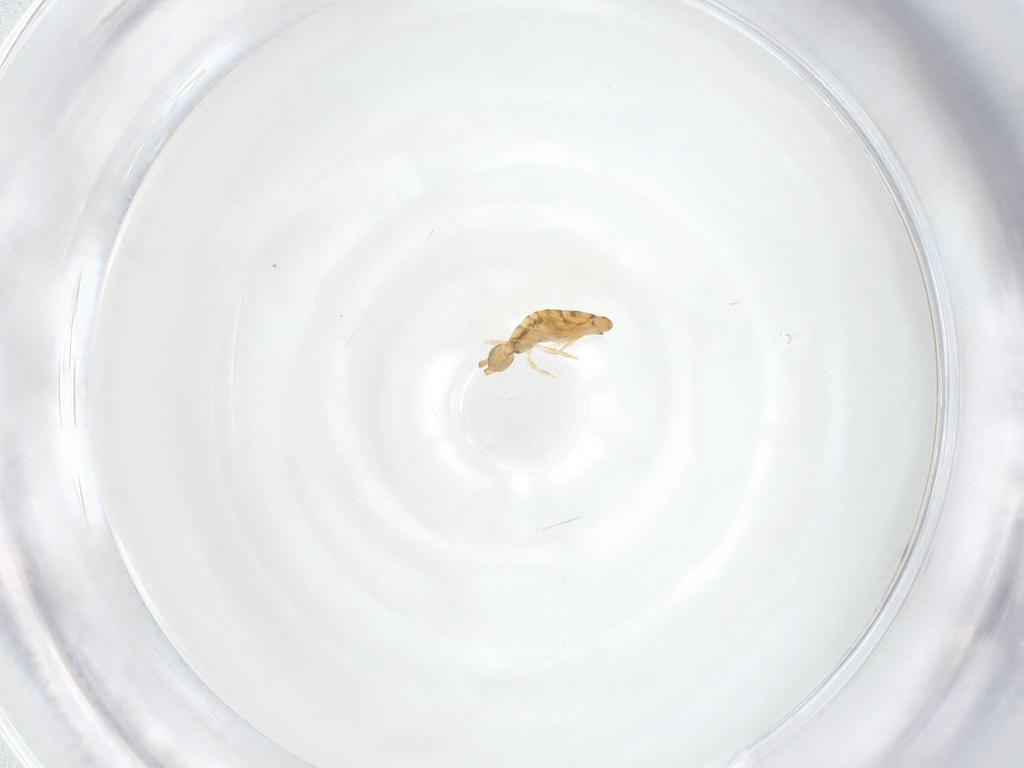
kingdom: Animalia
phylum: Arthropoda
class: Collembola
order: Entomobryomorpha
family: Entomobryidae
